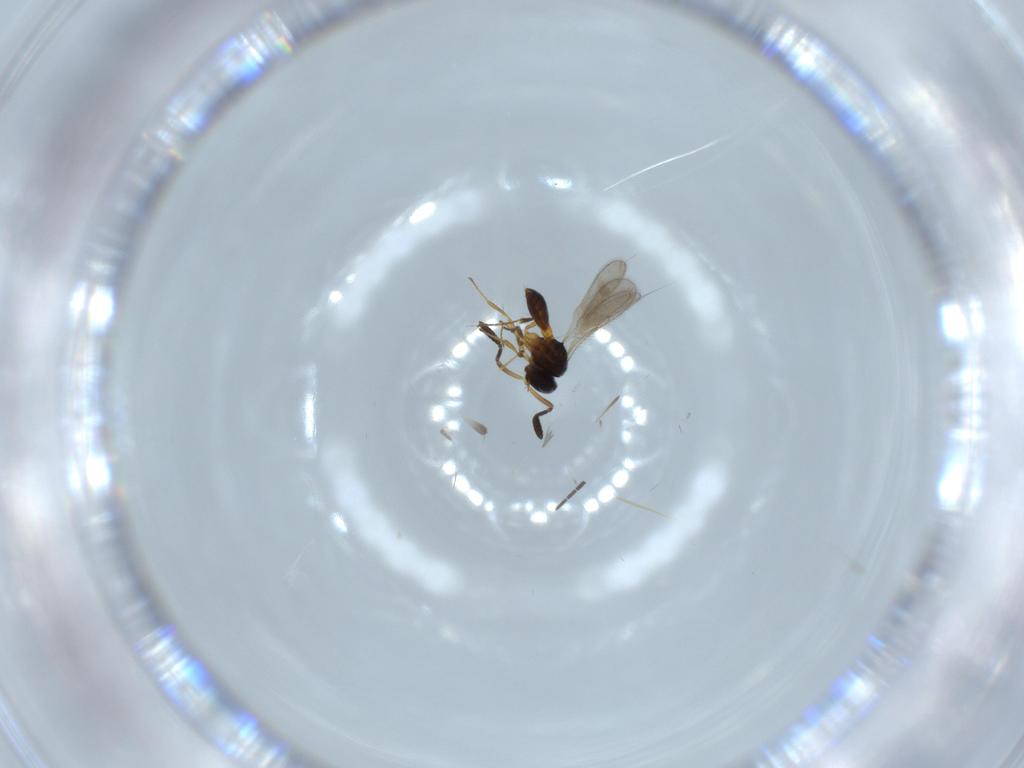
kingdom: Animalia
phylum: Arthropoda
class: Insecta
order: Hymenoptera
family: Scelionidae
